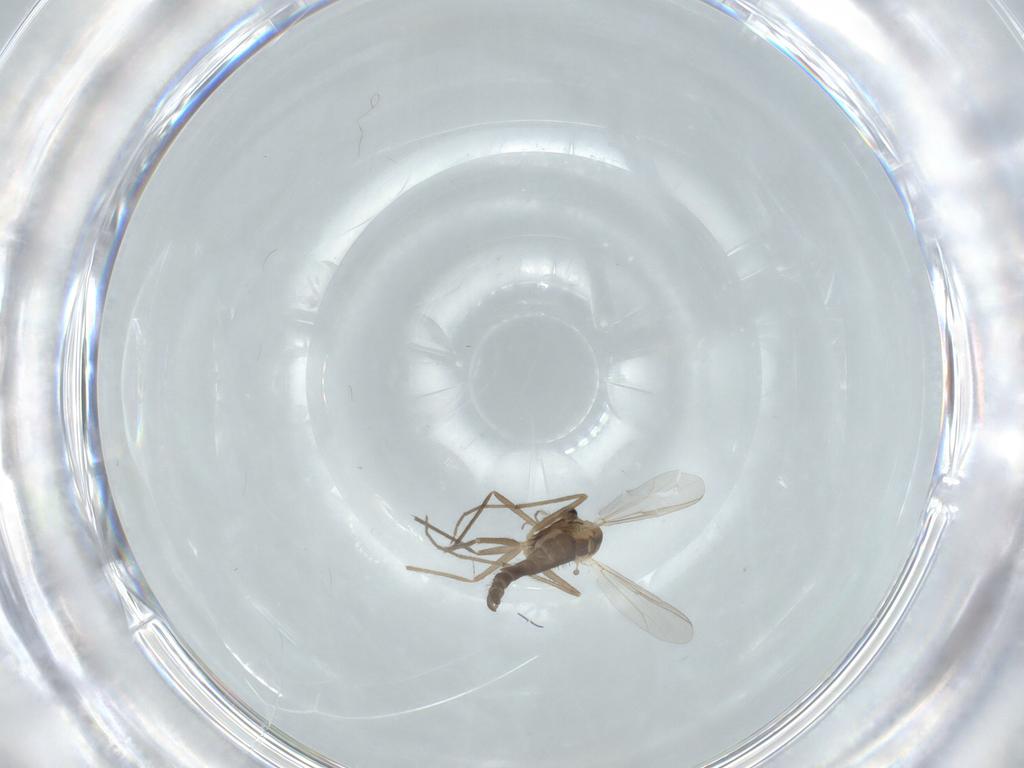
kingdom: Animalia
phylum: Arthropoda
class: Insecta
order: Diptera
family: Chironomidae
